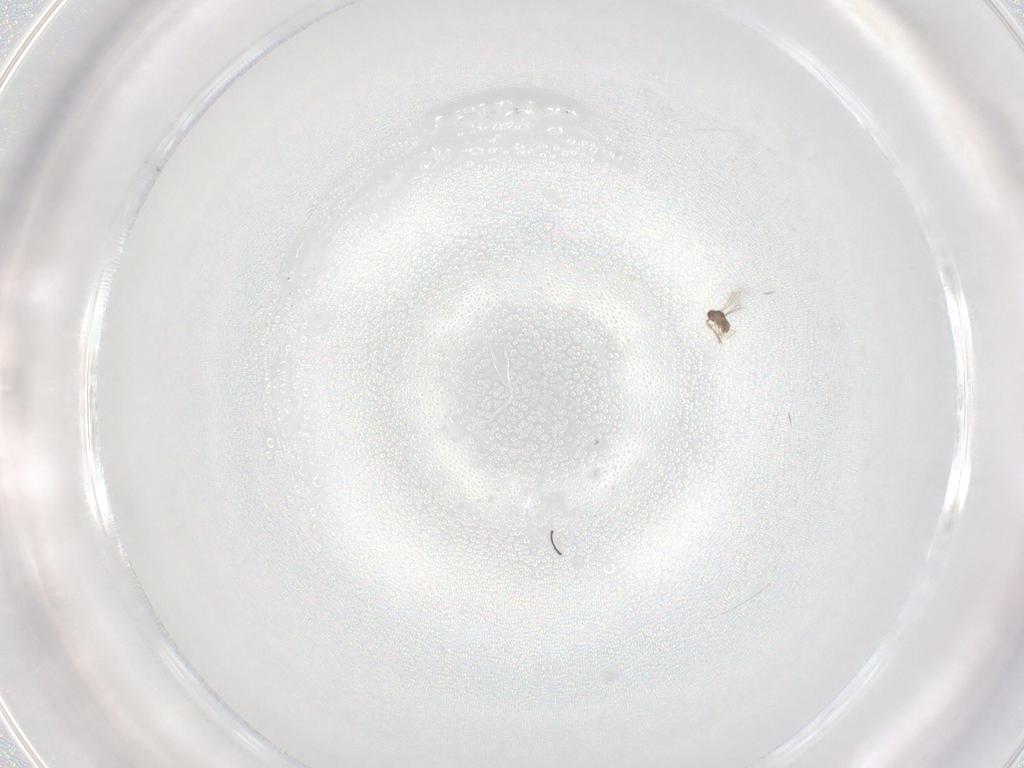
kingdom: Animalia
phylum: Arthropoda
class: Insecta
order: Hymenoptera
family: Mymaridae
